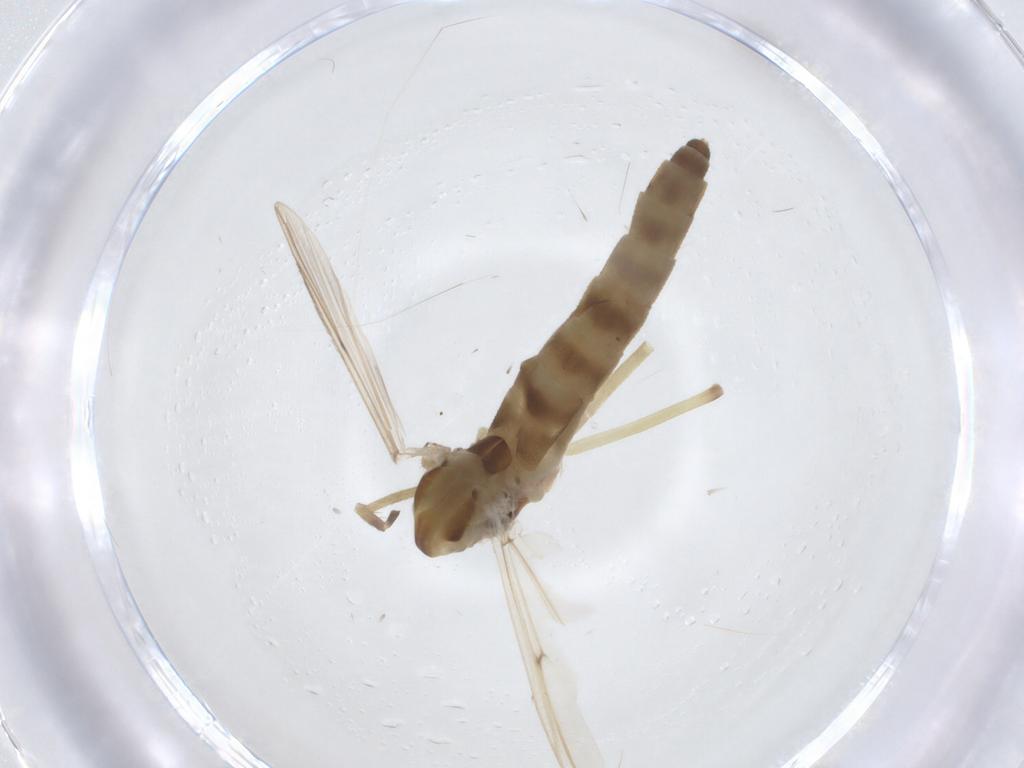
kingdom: Animalia
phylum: Arthropoda
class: Insecta
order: Diptera
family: Chironomidae
